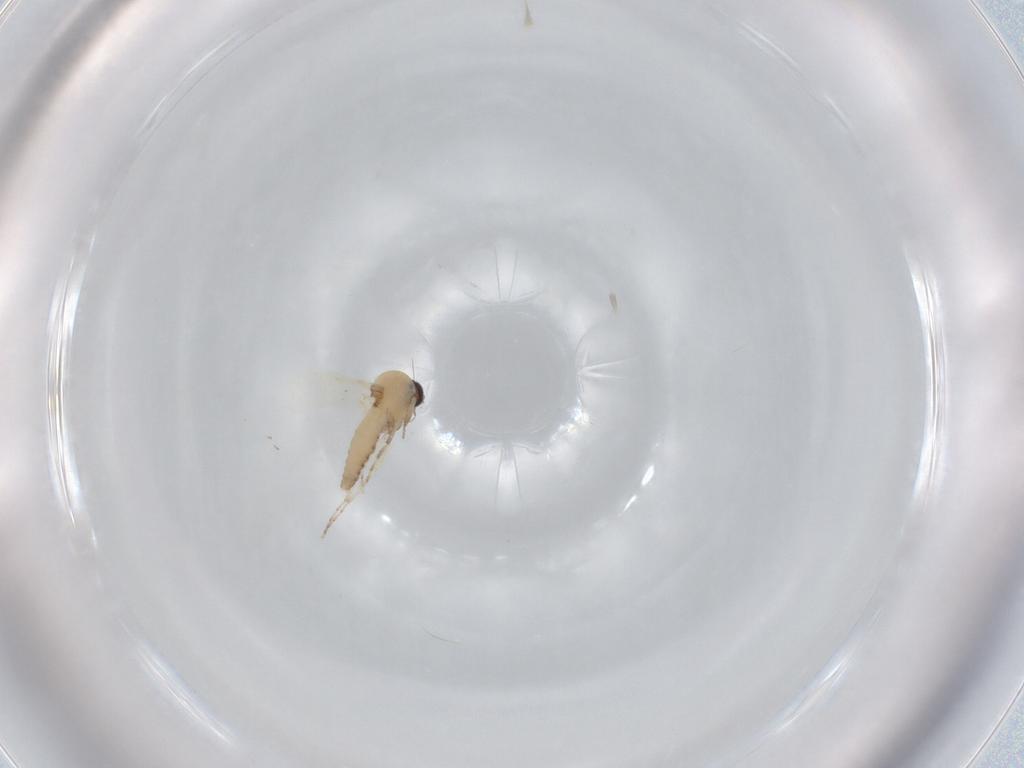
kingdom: Animalia
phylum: Arthropoda
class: Insecta
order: Diptera
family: Ceratopogonidae
